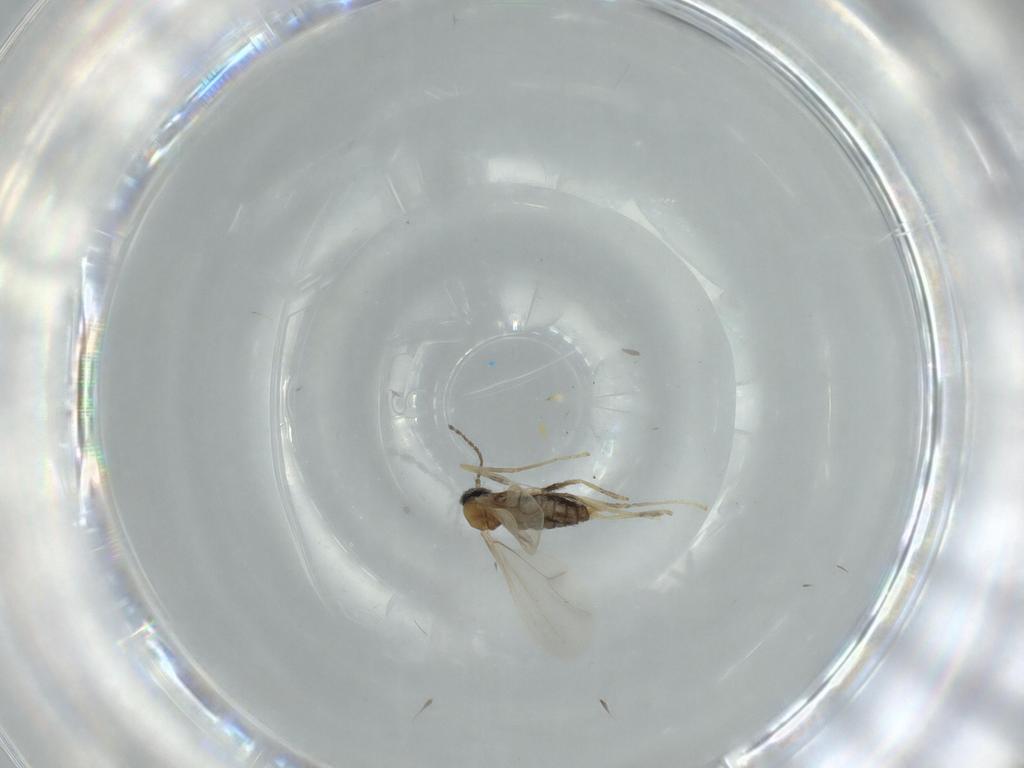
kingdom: Animalia
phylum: Arthropoda
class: Insecta
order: Diptera
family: Cecidomyiidae
